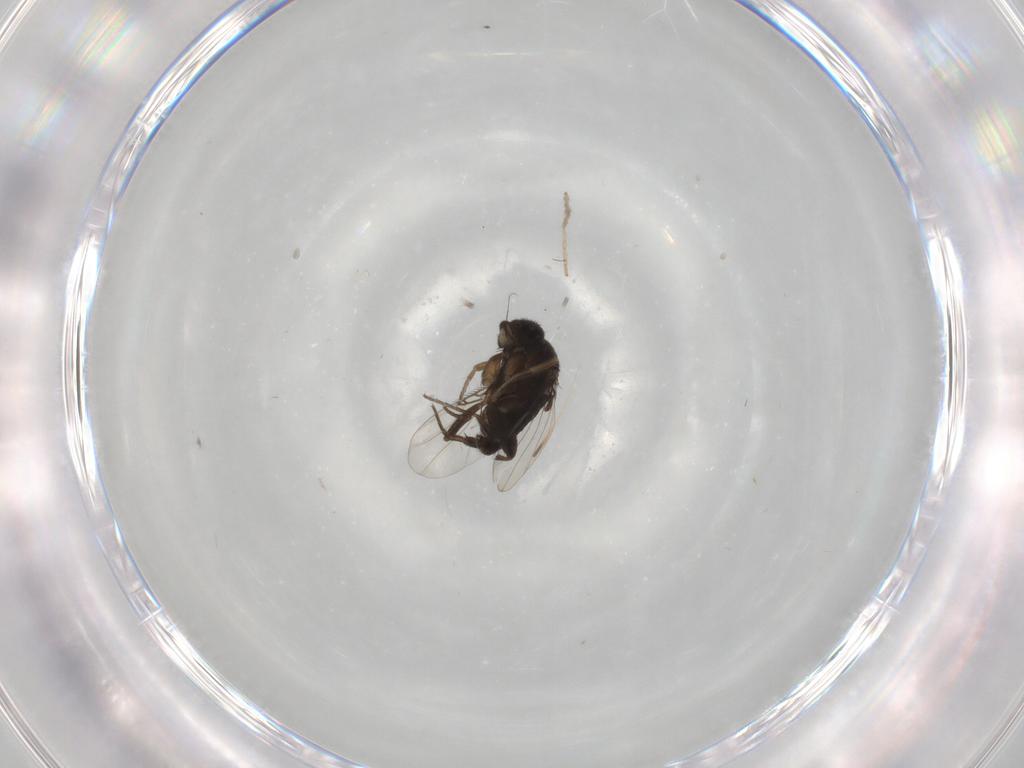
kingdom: Animalia
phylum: Arthropoda
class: Insecta
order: Diptera
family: Phoridae
